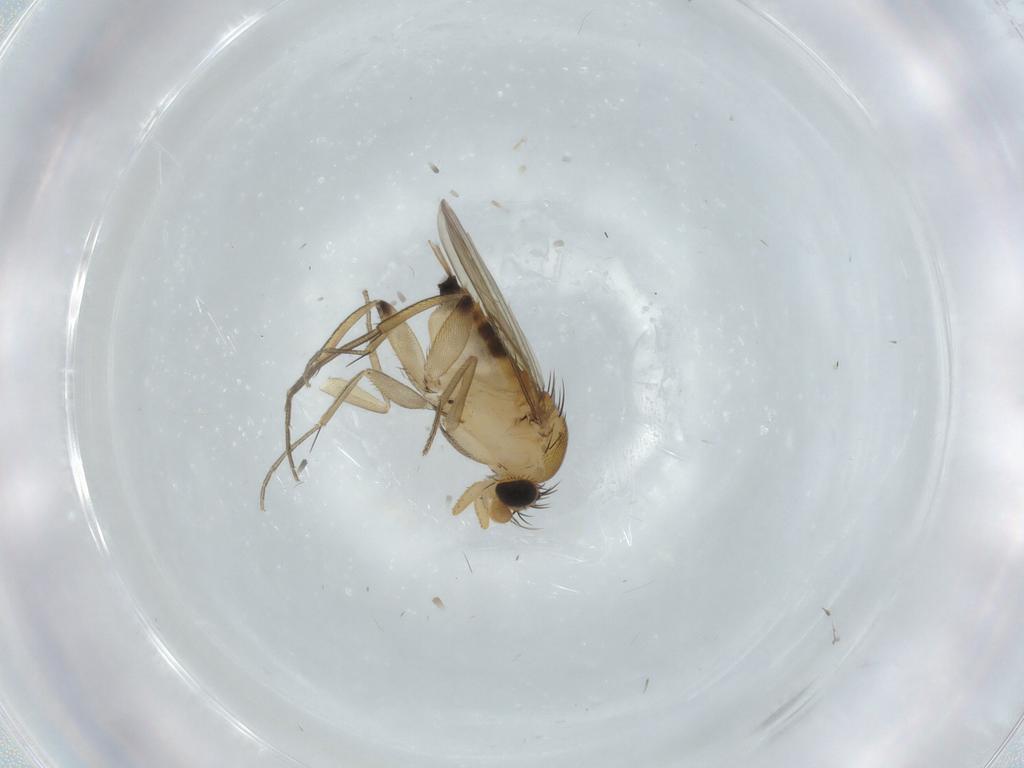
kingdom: Animalia
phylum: Arthropoda
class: Insecta
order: Diptera
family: Phoridae
